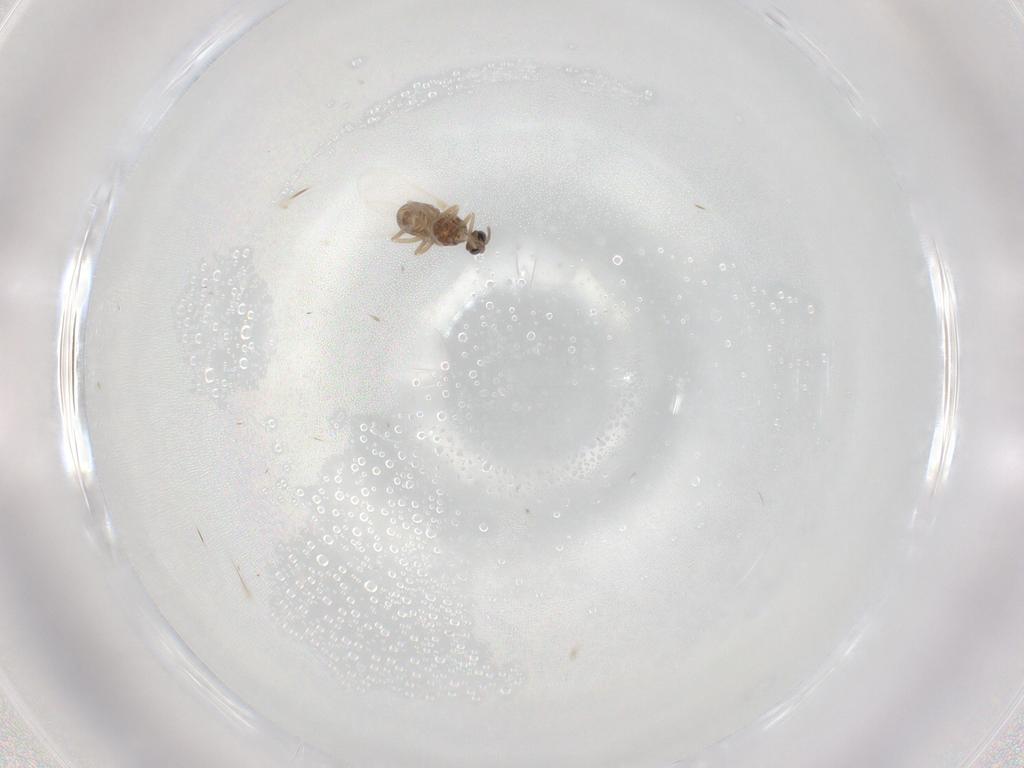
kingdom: Animalia
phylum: Arthropoda
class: Insecta
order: Diptera
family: Cecidomyiidae
